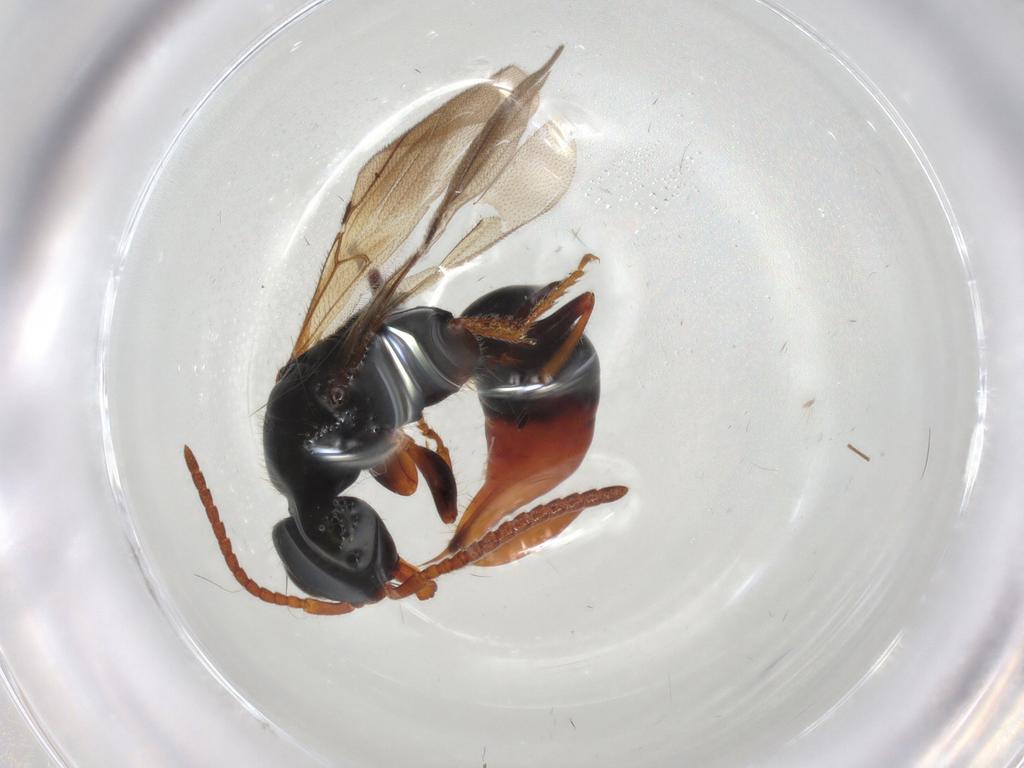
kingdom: Animalia
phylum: Arthropoda
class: Insecta
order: Hymenoptera
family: Bethylidae
